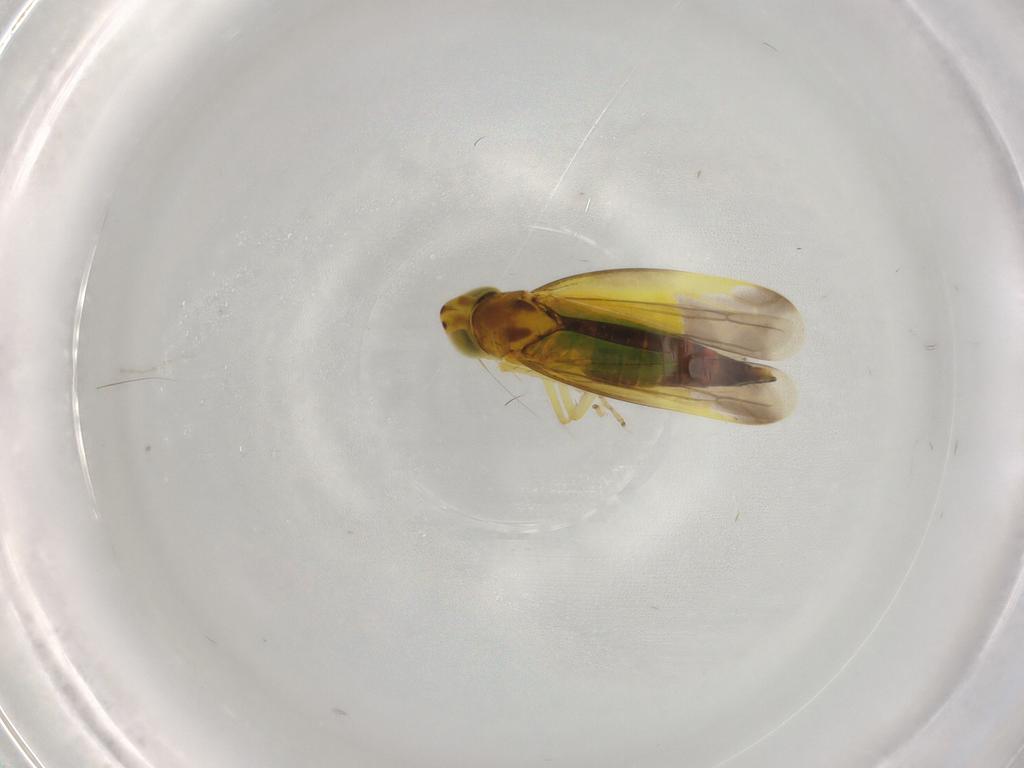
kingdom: Animalia
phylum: Arthropoda
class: Insecta
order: Hemiptera
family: Cicadellidae
